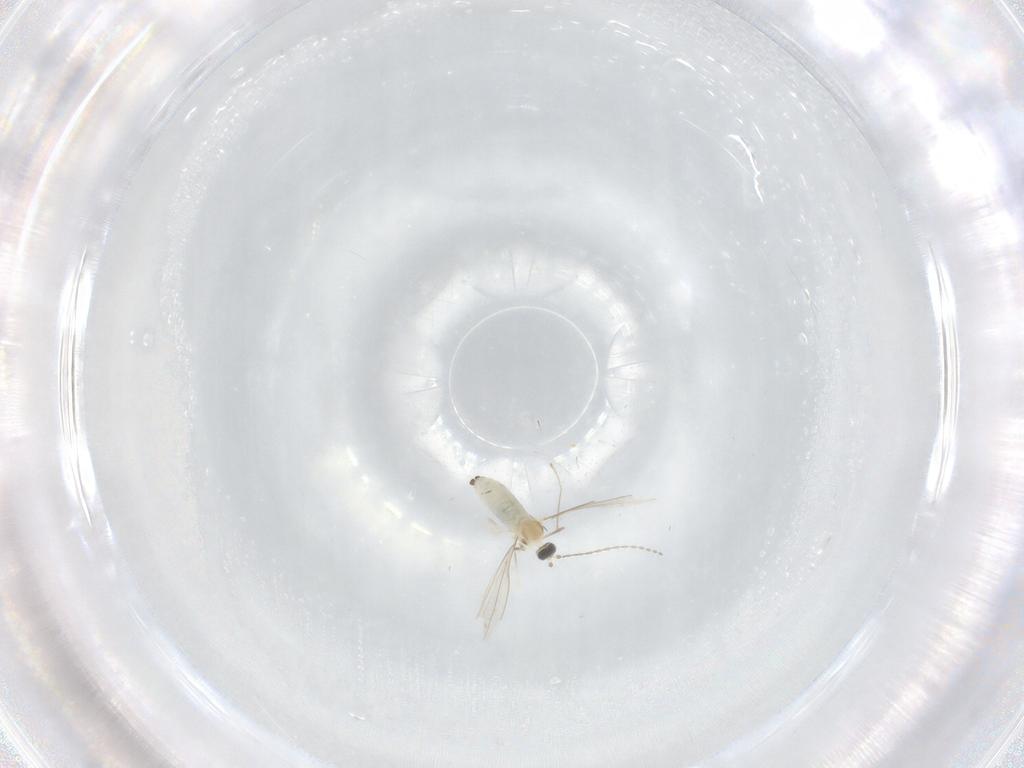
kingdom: Animalia
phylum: Arthropoda
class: Insecta
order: Diptera
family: Cecidomyiidae
